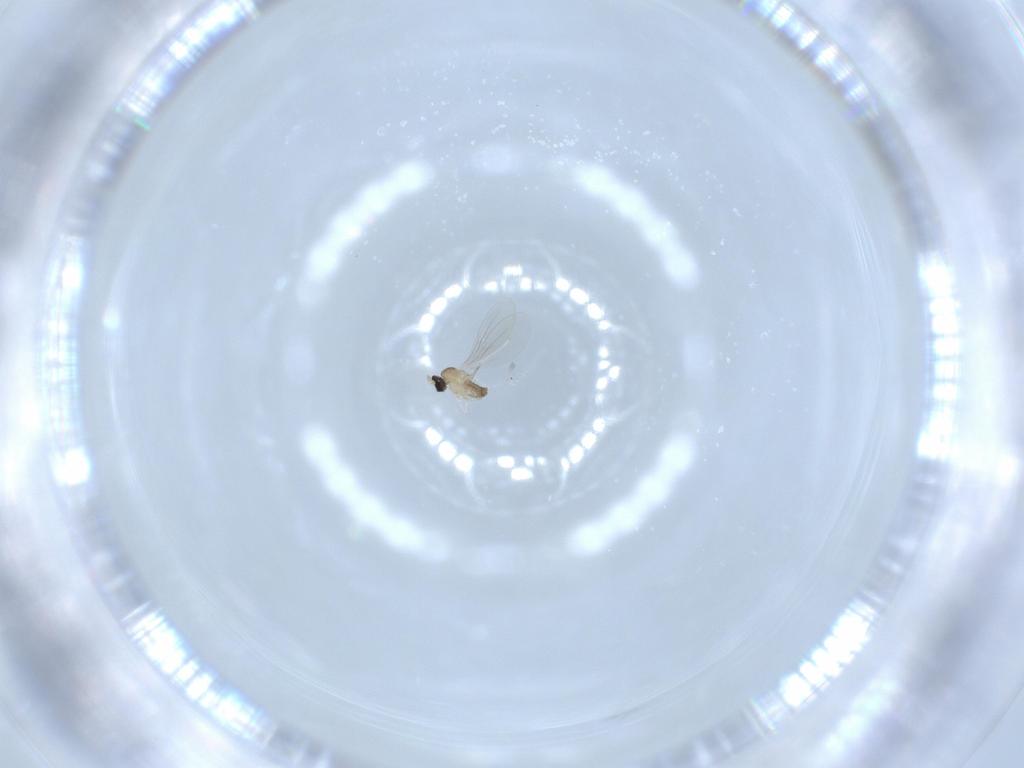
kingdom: Animalia
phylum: Arthropoda
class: Insecta
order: Diptera
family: Cecidomyiidae
